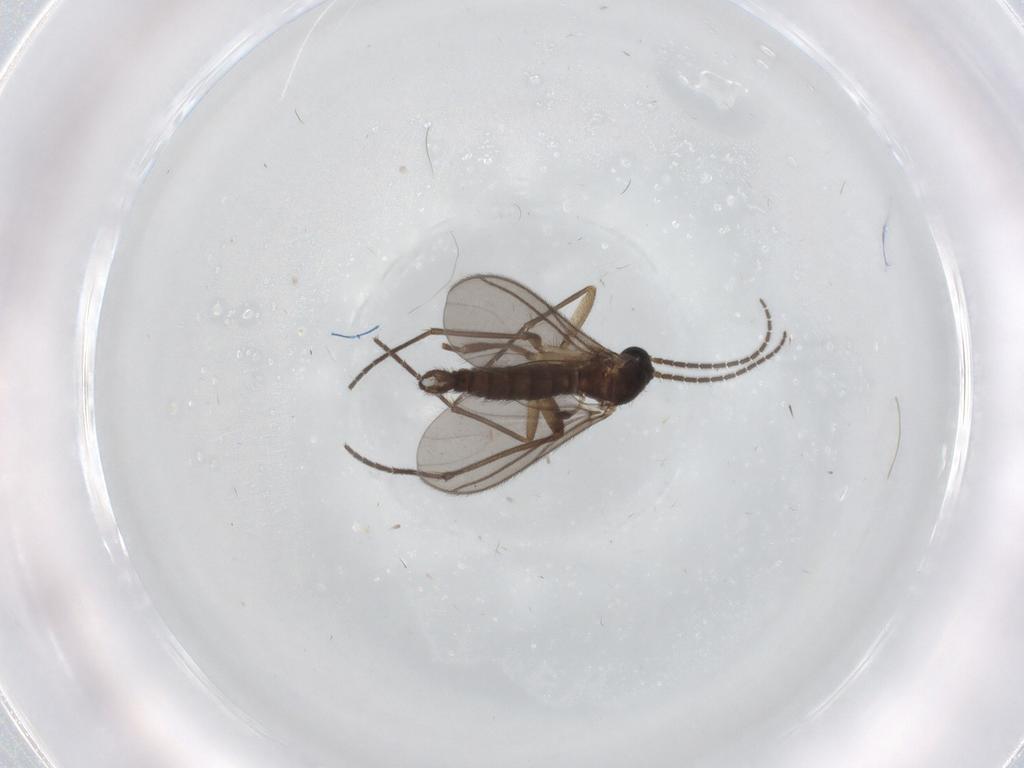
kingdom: Animalia
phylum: Arthropoda
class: Insecta
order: Diptera
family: Sciaridae
